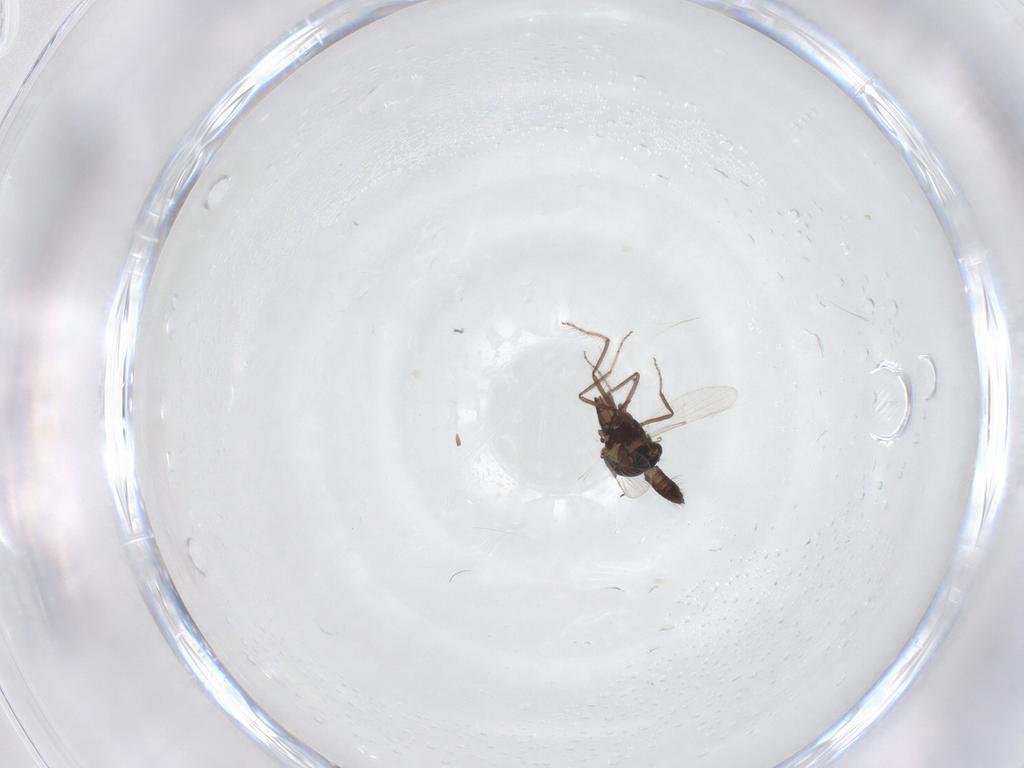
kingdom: Animalia
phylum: Arthropoda
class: Insecta
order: Diptera
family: Ceratopogonidae
